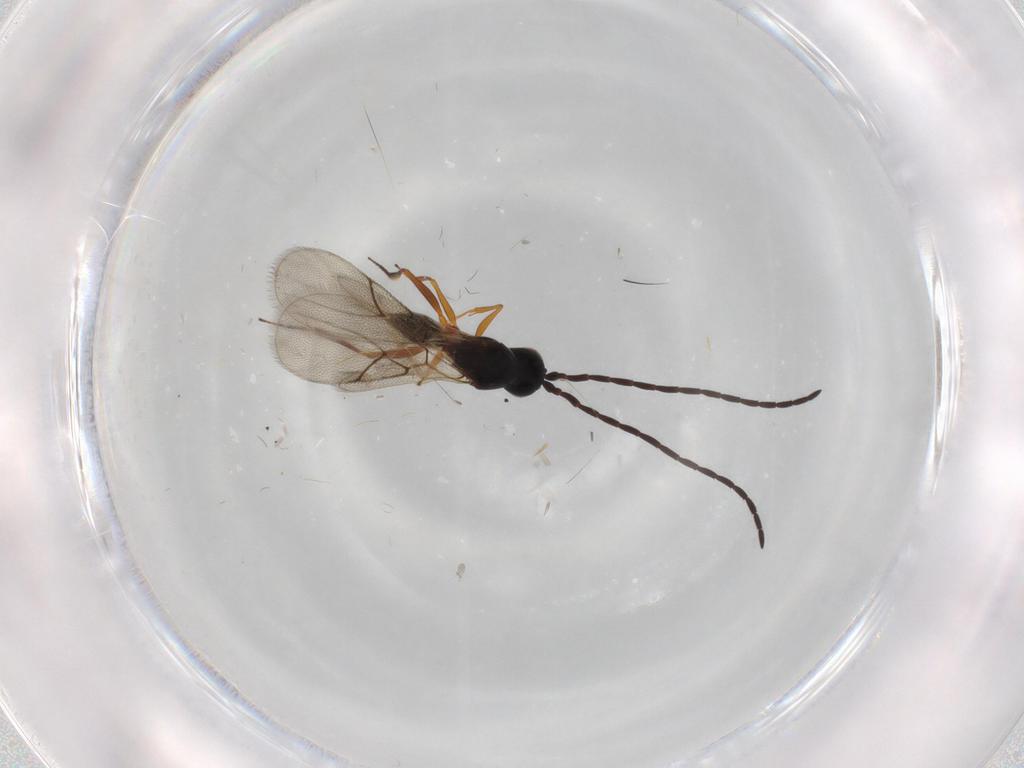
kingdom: Animalia
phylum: Arthropoda
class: Insecta
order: Hymenoptera
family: Figitidae
